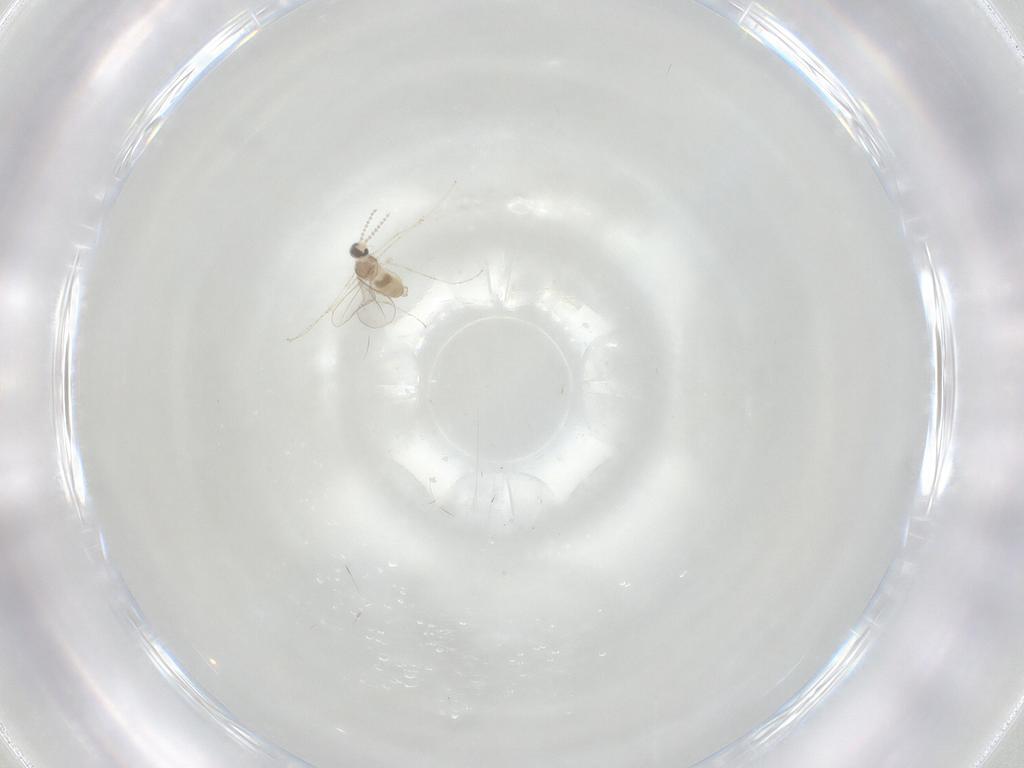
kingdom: Animalia
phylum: Arthropoda
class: Insecta
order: Diptera
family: Cecidomyiidae
